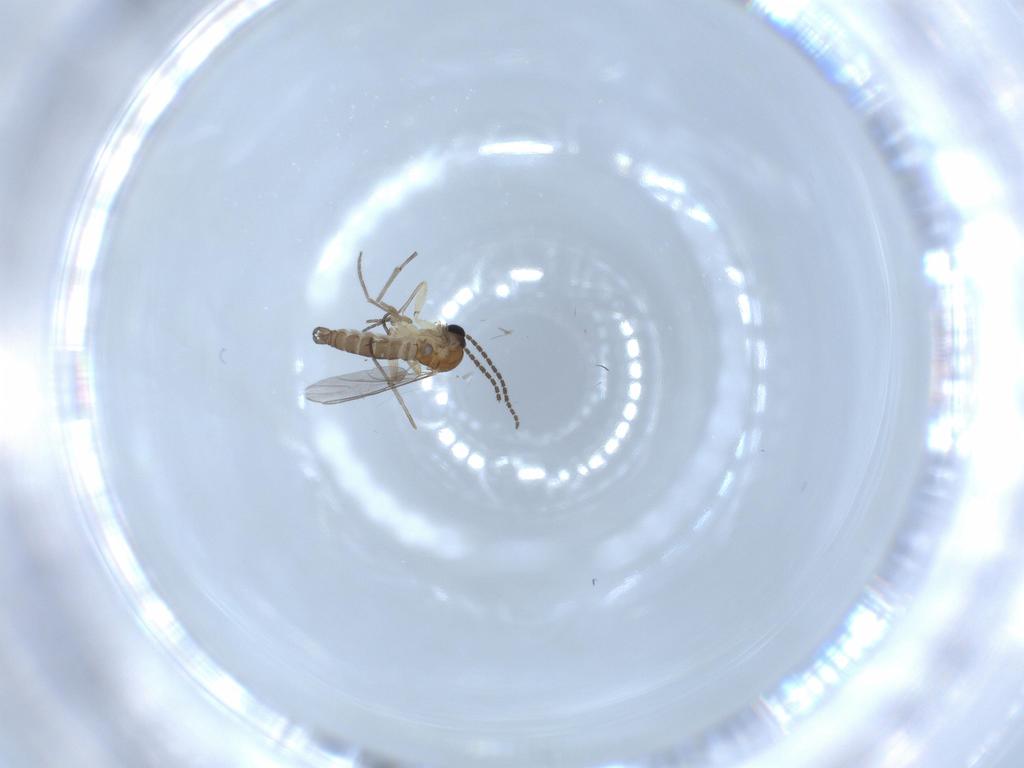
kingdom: Animalia
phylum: Arthropoda
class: Insecta
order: Diptera
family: Sciaridae
